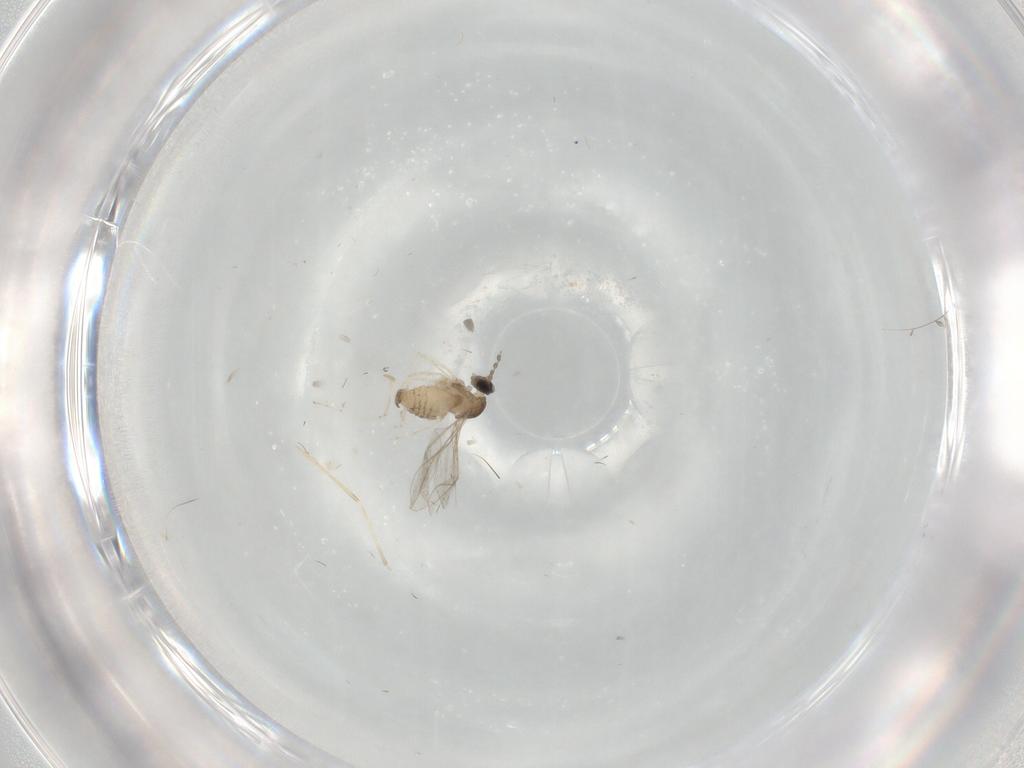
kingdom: Animalia
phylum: Arthropoda
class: Insecta
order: Diptera
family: Cecidomyiidae
